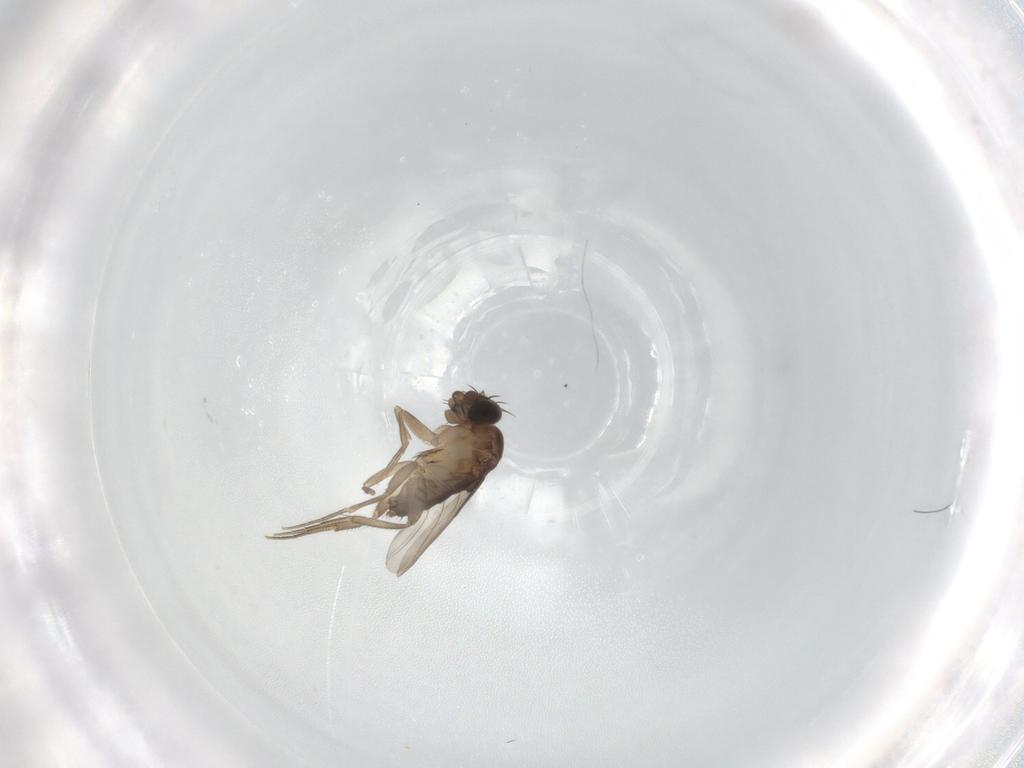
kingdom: Animalia
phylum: Arthropoda
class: Insecta
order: Diptera
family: Phoridae
